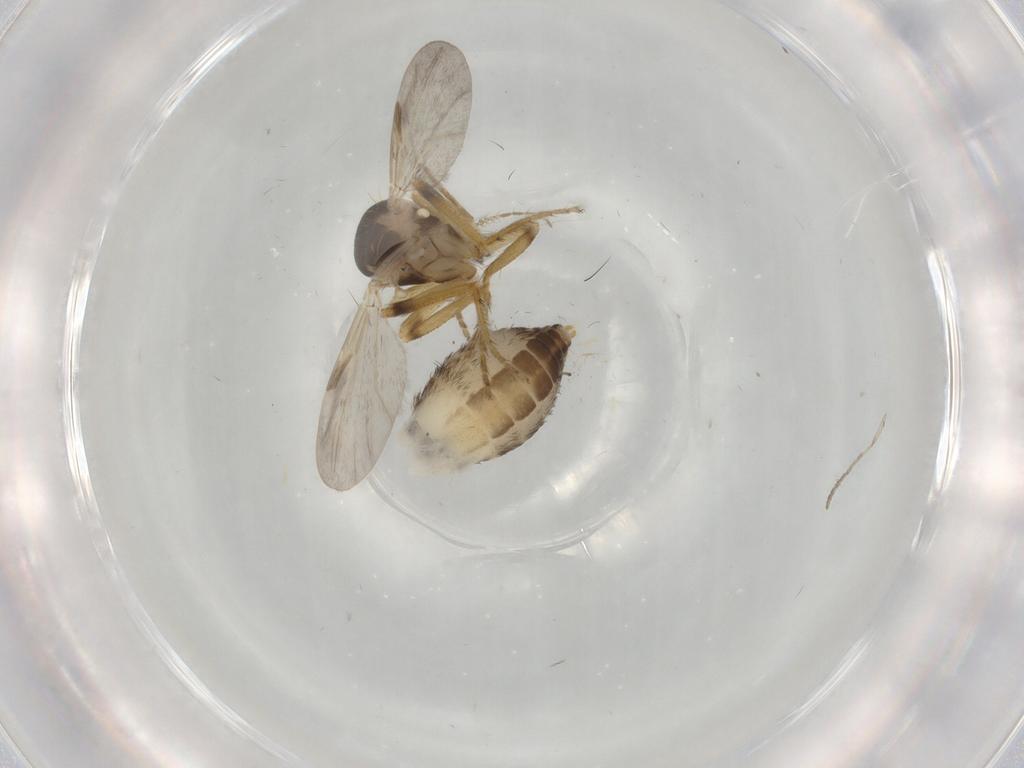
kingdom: Animalia
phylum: Arthropoda
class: Insecta
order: Diptera
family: Ceratopogonidae
